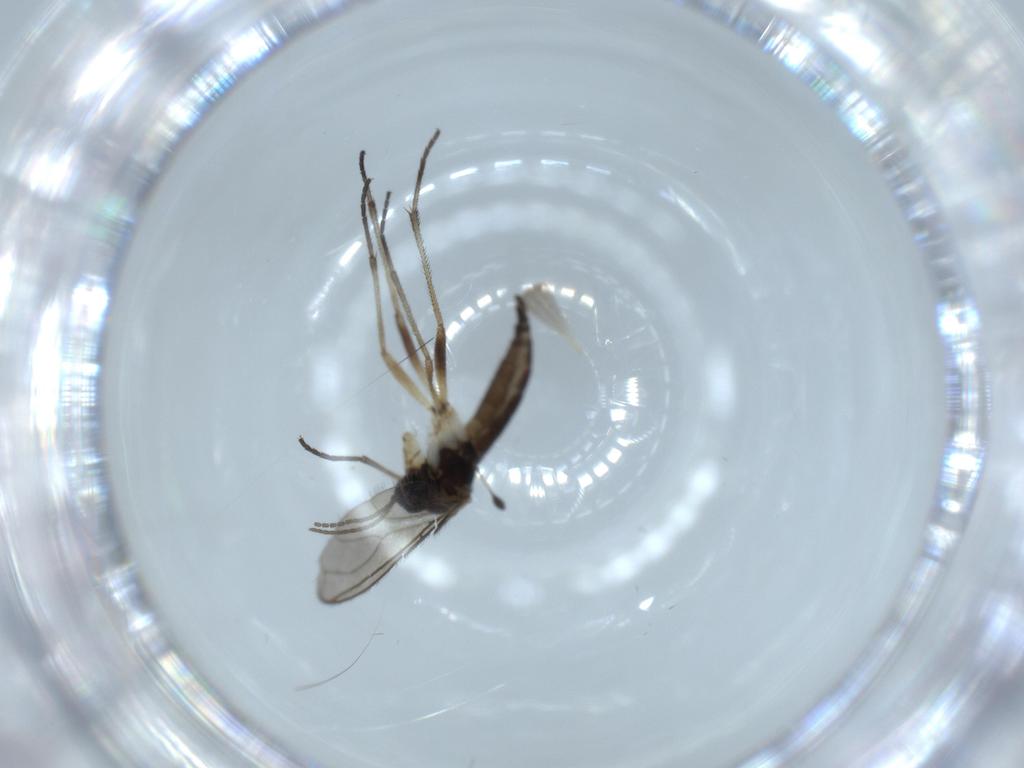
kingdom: Animalia
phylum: Arthropoda
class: Insecta
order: Diptera
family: Sciaridae
